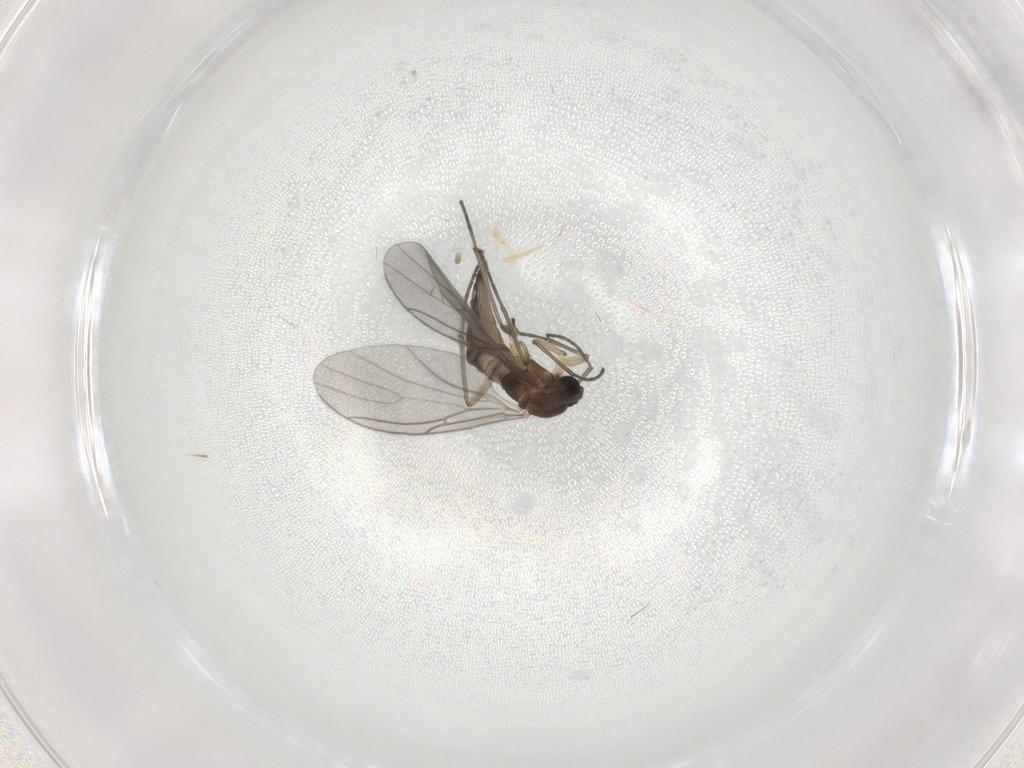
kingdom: Animalia
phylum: Arthropoda
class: Insecta
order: Diptera
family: Sciaridae
